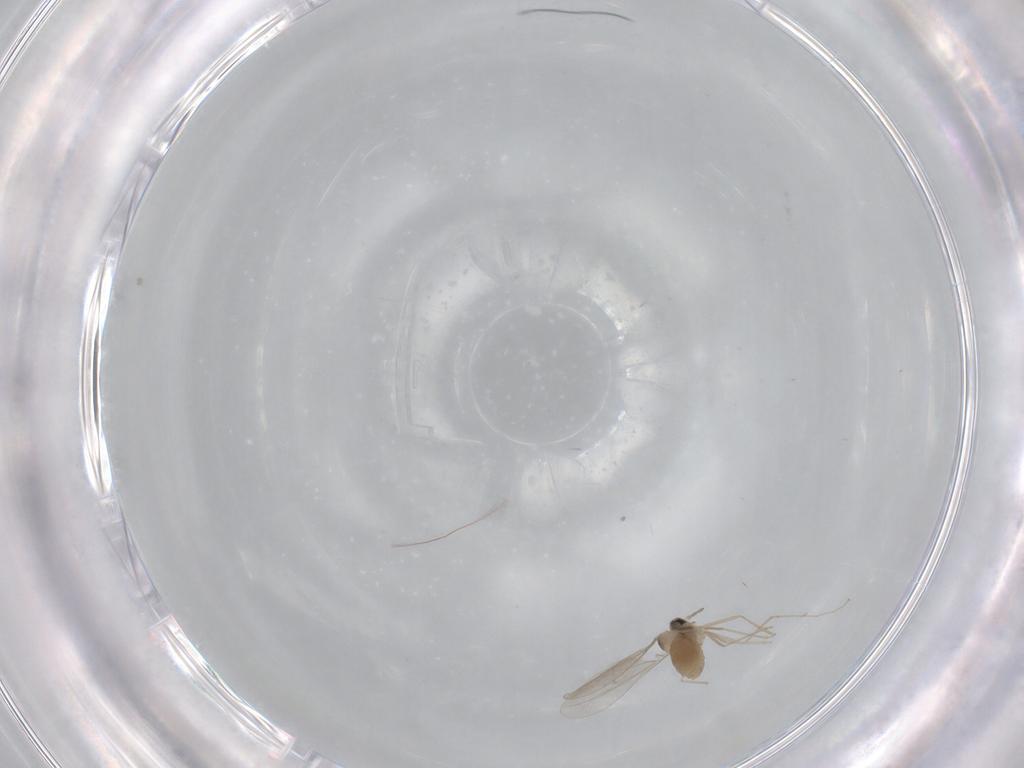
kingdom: Animalia
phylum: Arthropoda
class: Insecta
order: Diptera
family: Cecidomyiidae
